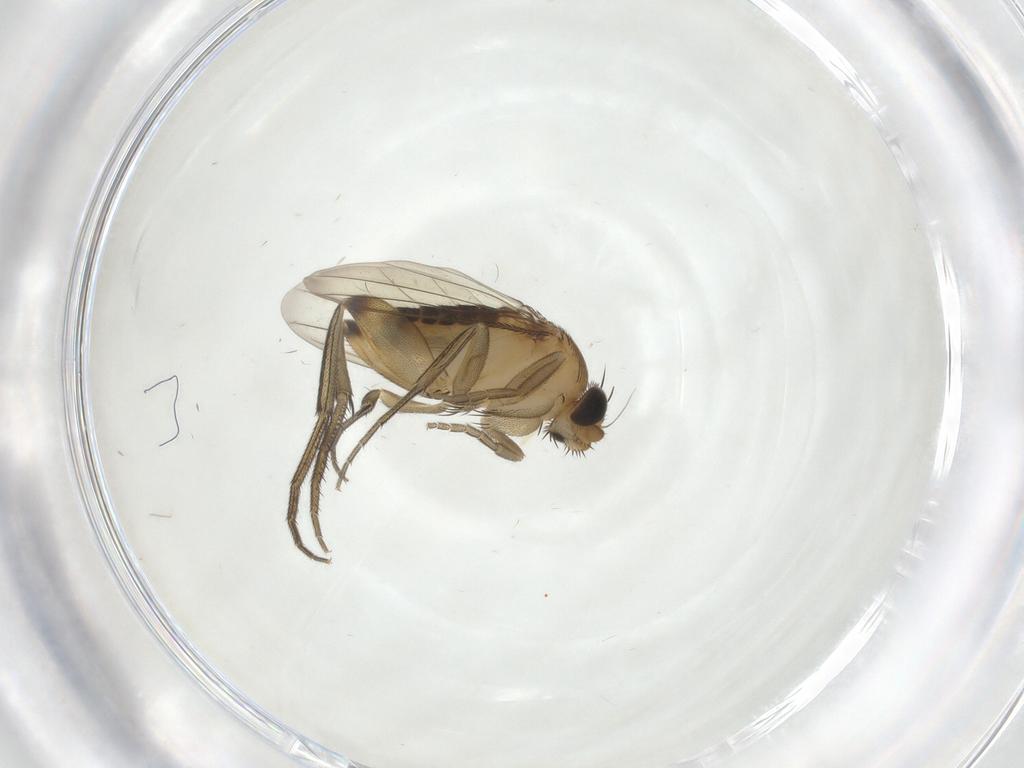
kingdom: Animalia
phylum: Arthropoda
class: Insecta
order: Diptera
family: Phoridae
